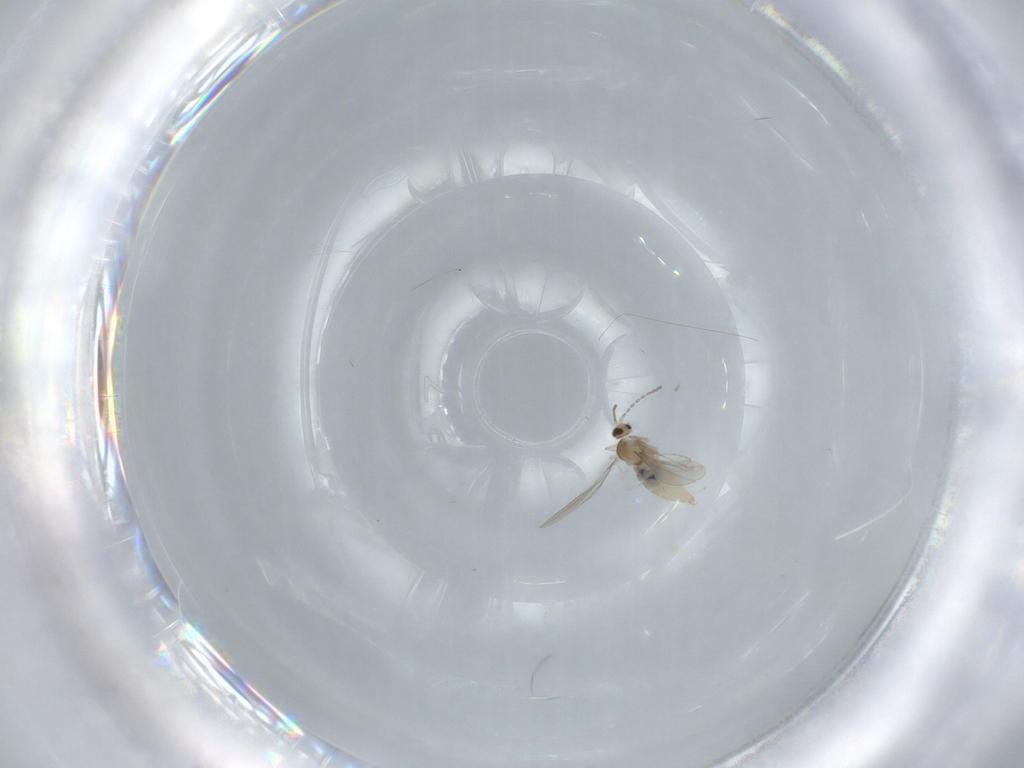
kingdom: Animalia
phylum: Arthropoda
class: Insecta
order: Diptera
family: Cecidomyiidae
